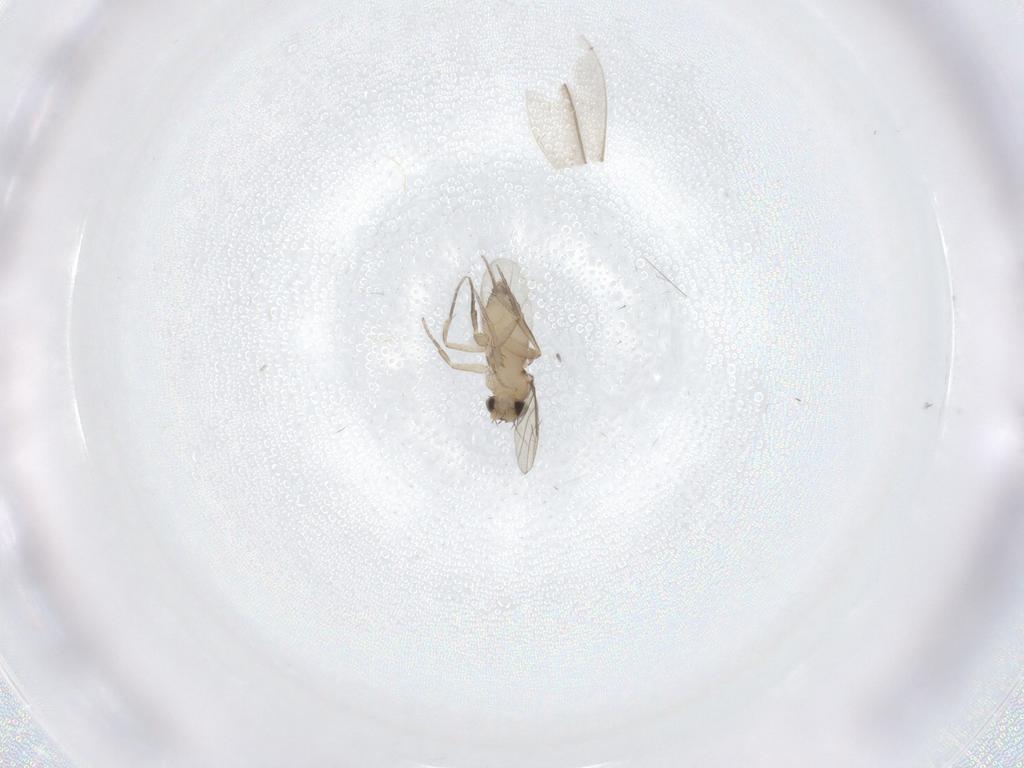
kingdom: Animalia
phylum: Arthropoda
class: Insecta
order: Diptera
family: Phoridae
